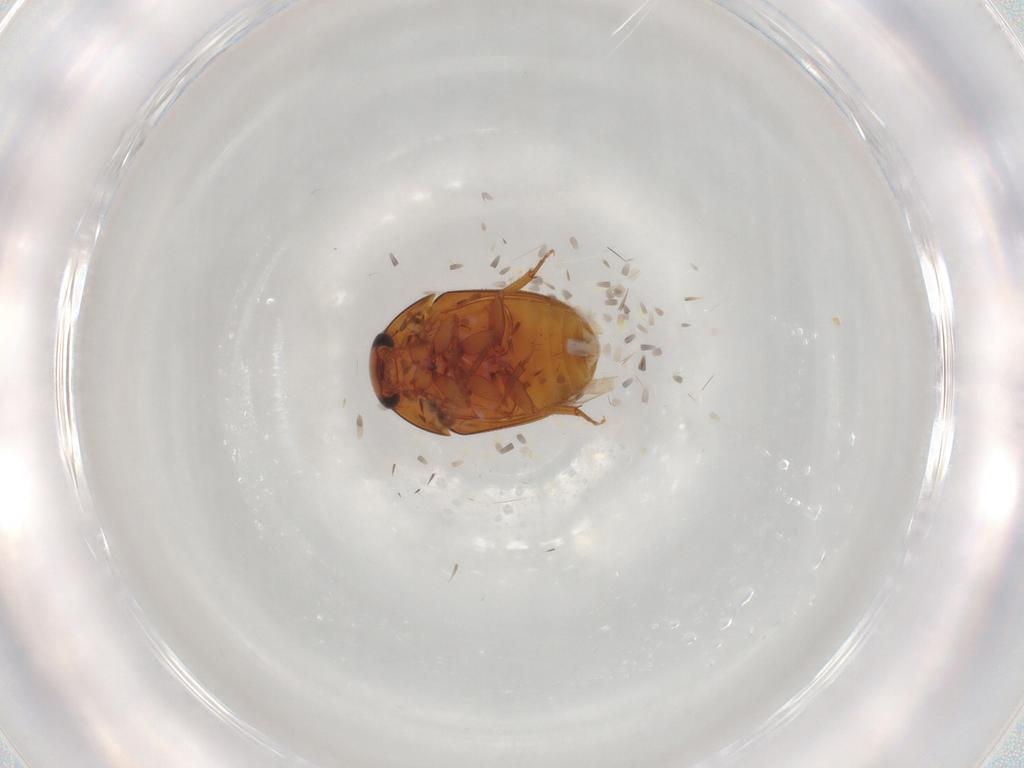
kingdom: Animalia
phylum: Arthropoda
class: Insecta
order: Coleoptera
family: Phalacridae
